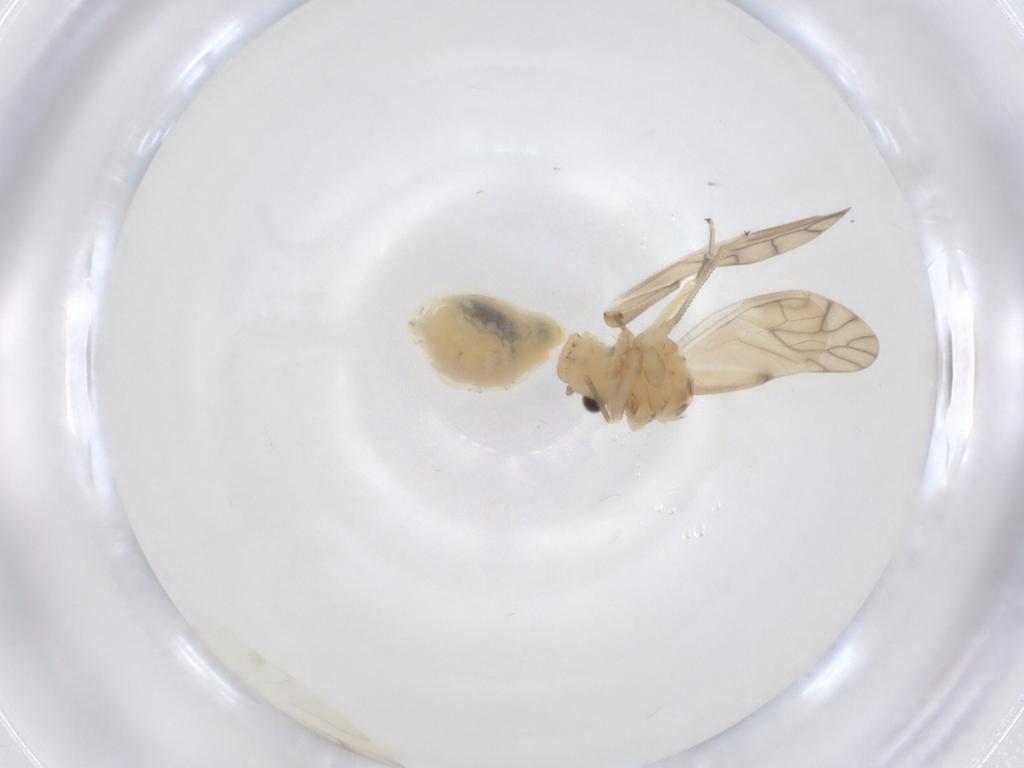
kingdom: Animalia
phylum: Arthropoda
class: Insecta
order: Psocodea
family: Caeciliusidae
